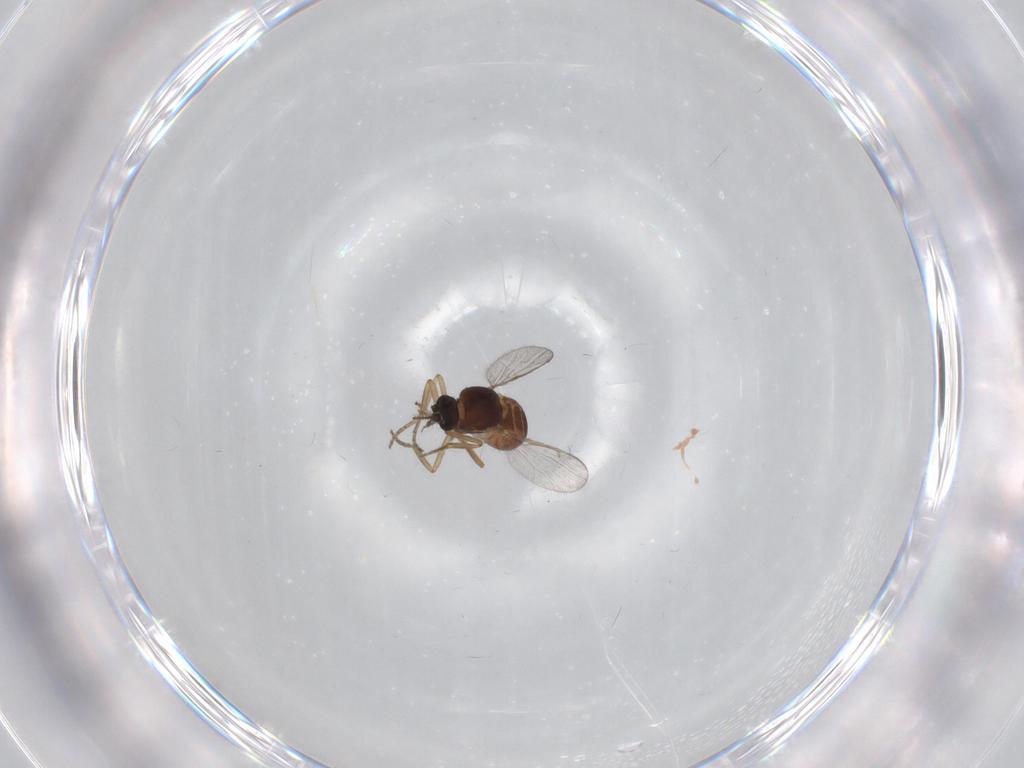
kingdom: Animalia
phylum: Arthropoda
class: Insecta
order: Diptera
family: Ceratopogonidae
